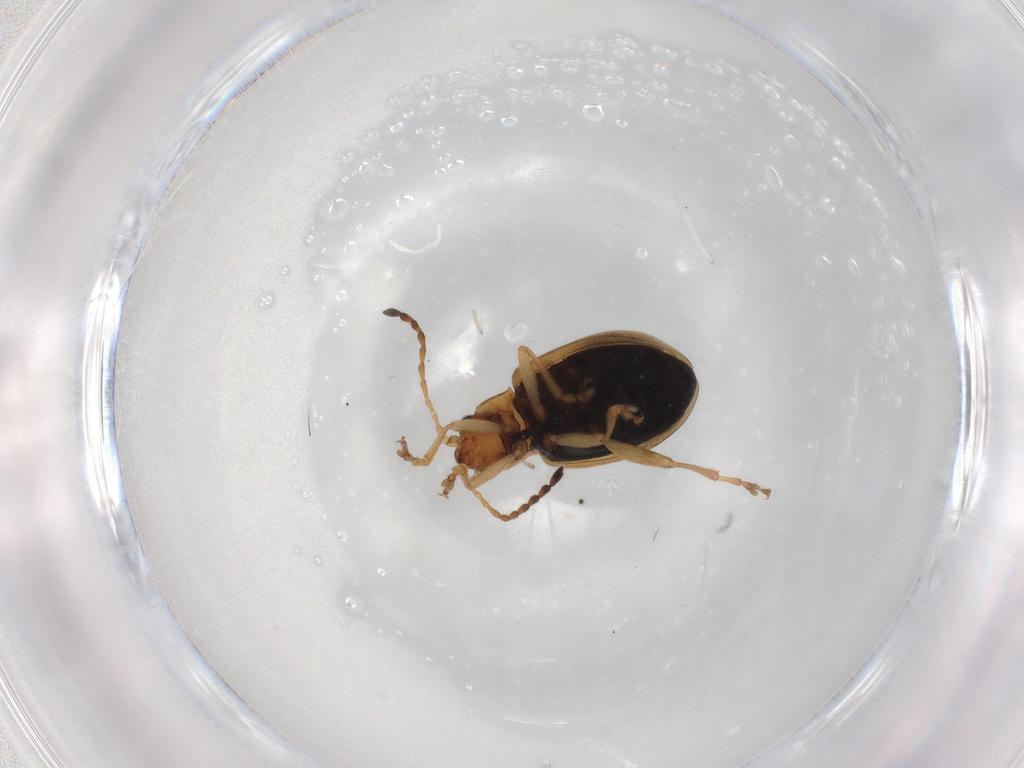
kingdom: Animalia
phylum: Arthropoda
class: Insecta
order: Coleoptera
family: Chrysomelidae
